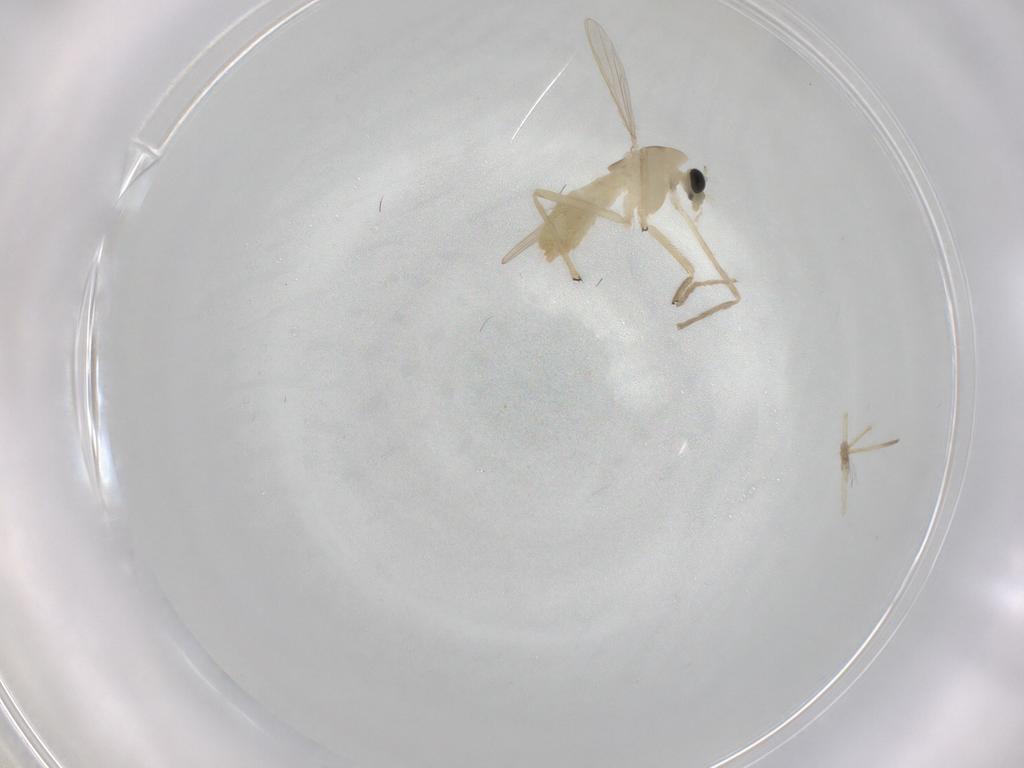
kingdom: Animalia
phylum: Arthropoda
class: Insecta
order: Diptera
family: Chironomidae
